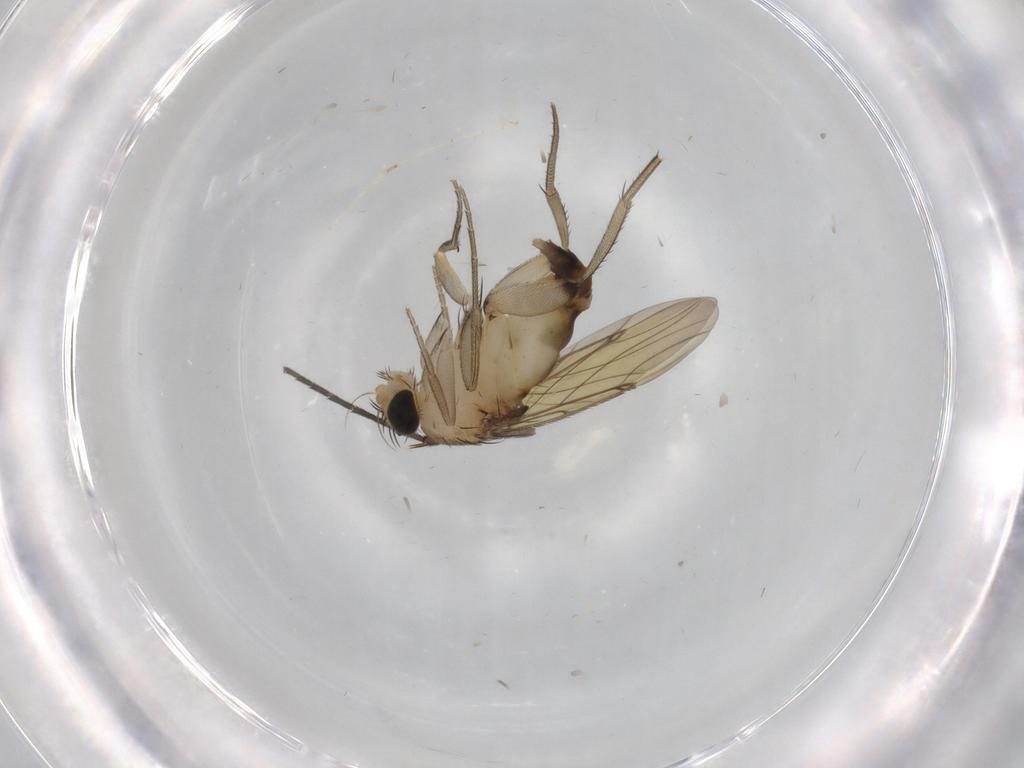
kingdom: Animalia
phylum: Arthropoda
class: Insecta
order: Diptera
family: Phoridae
